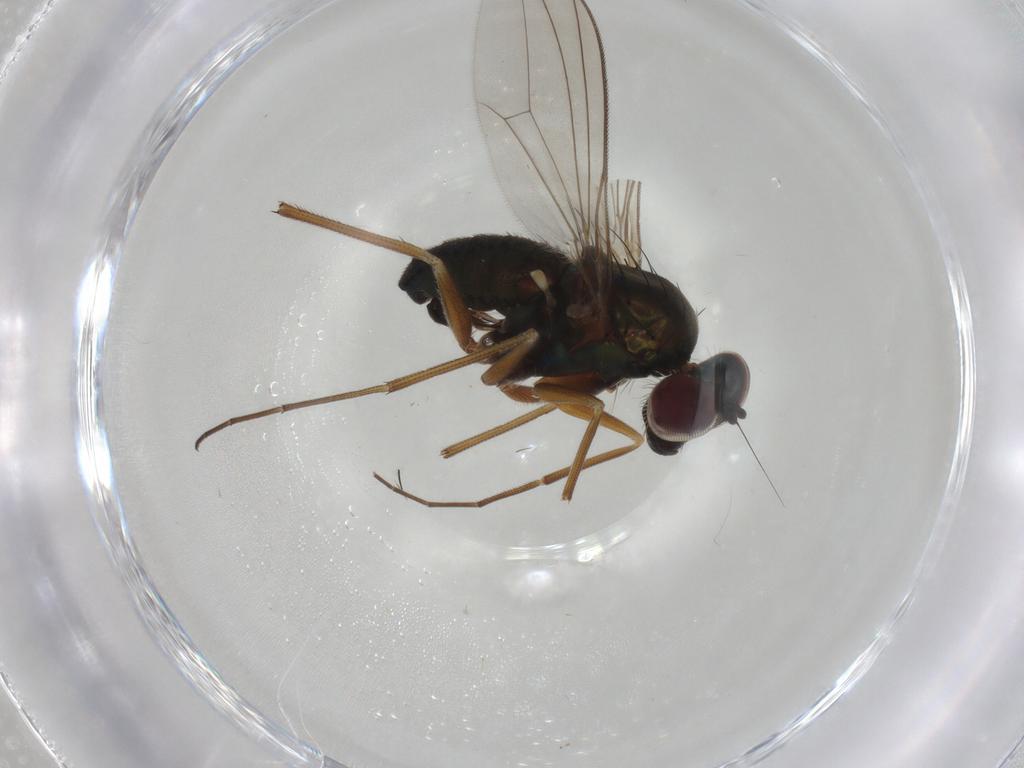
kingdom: Animalia
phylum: Arthropoda
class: Insecta
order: Diptera
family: Dolichopodidae
